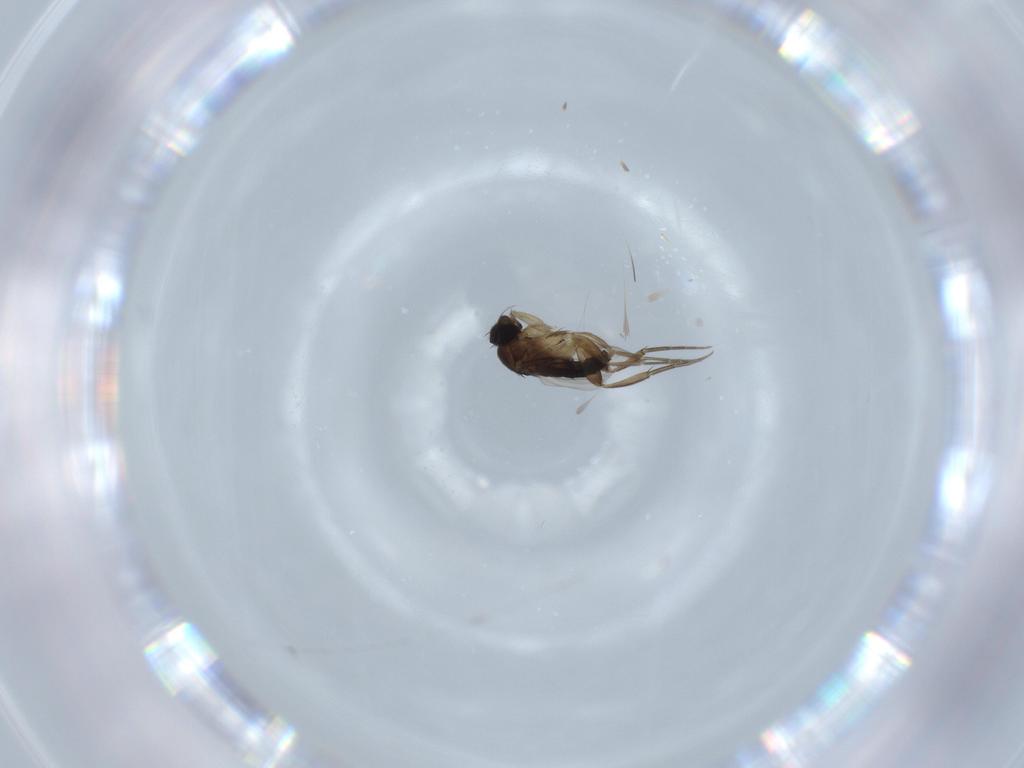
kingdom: Animalia
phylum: Arthropoda
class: Insecta
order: Diptera
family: Phoridae
